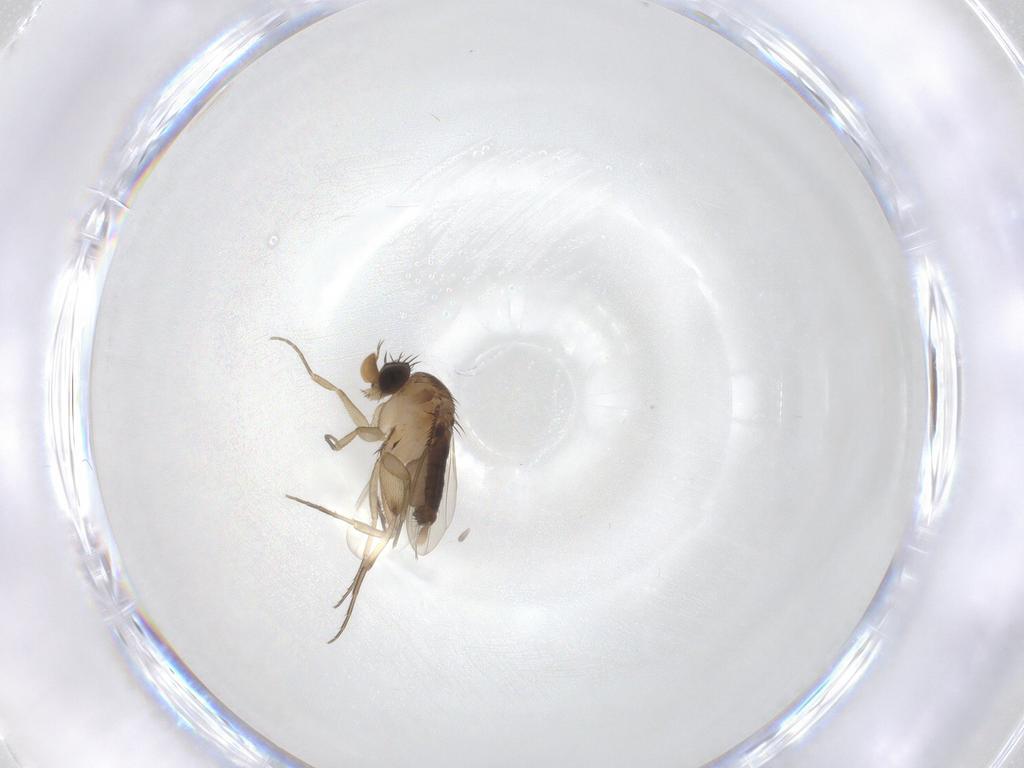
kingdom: Animalia
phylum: Arthropoda
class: Insecta
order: Diptera
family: Phoridae
